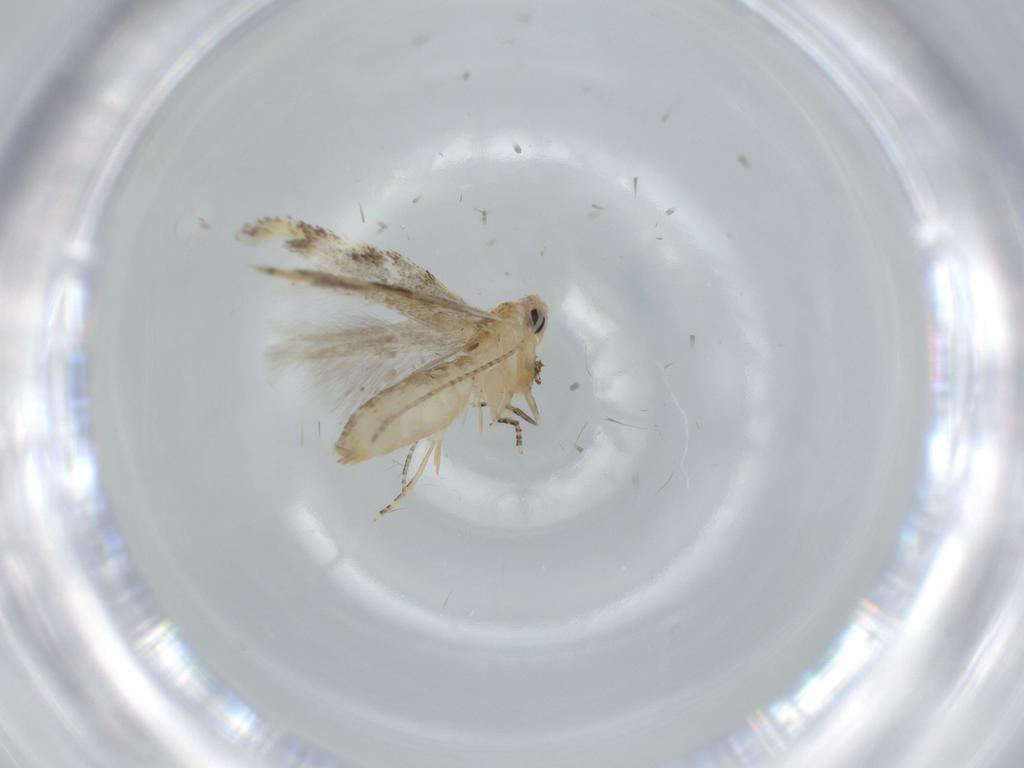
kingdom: Animalia
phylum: Arthropoda
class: Insecta
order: Lepidoptera
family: Bucculatricidae
